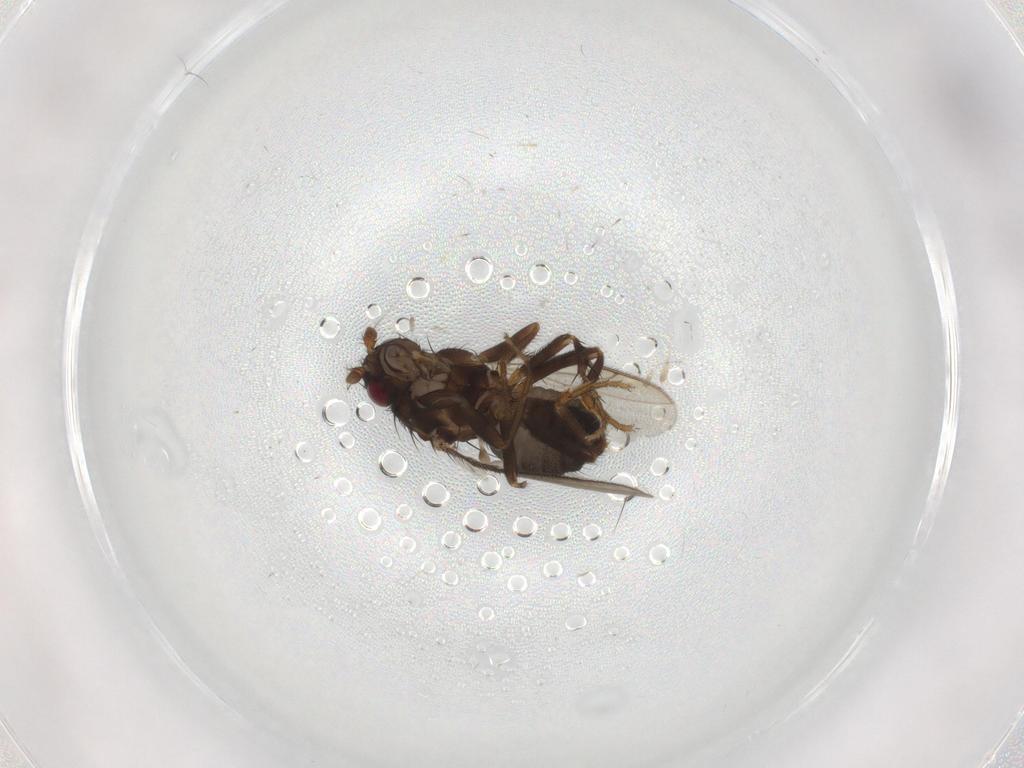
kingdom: Animalia
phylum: Arthropoda
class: Insecta
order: Diptera
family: Sphaeroceridae
